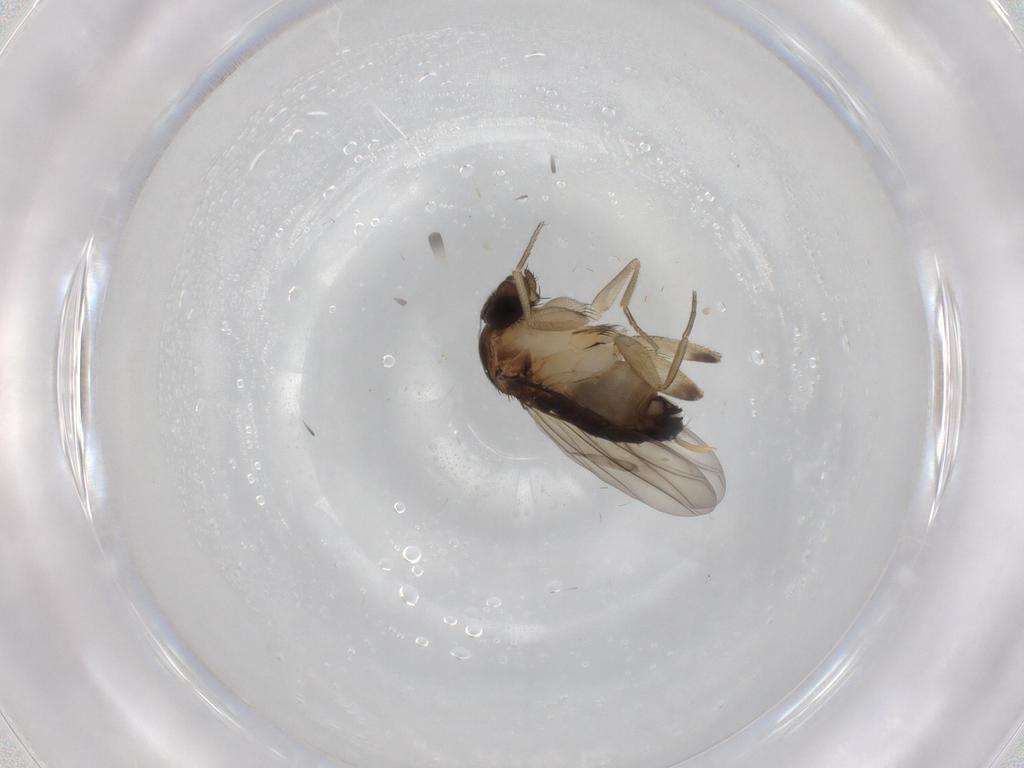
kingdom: Animalia
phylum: Arthropoda
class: Insecta
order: Diptera
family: Phoridae
